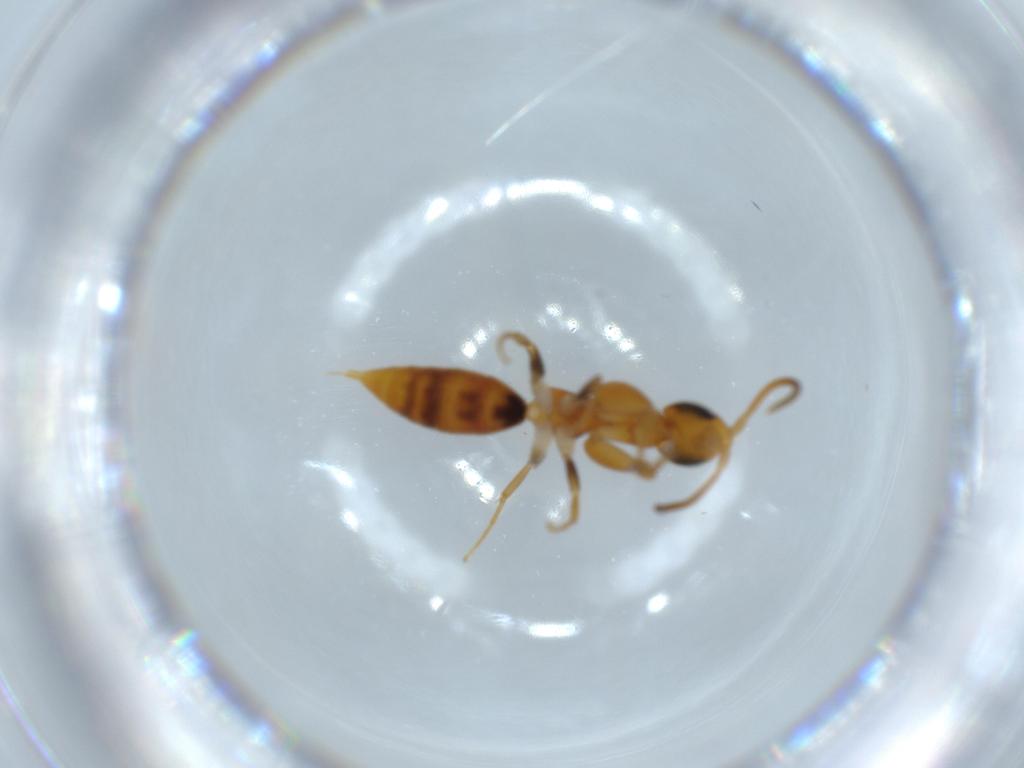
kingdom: Animalia
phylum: Arthropoda
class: Insecta
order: Hymenoptera
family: Sclerogibbidae
